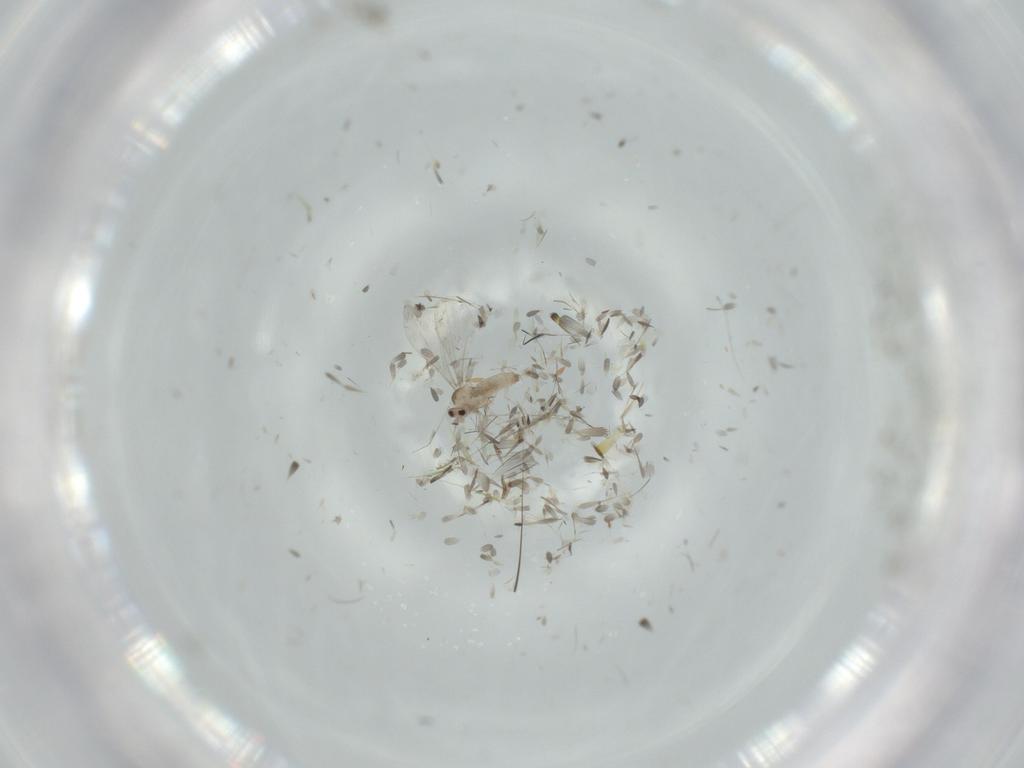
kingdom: Animalia
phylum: Arthropoda
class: Insecta
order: Diptera
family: Cecidomyiidae
